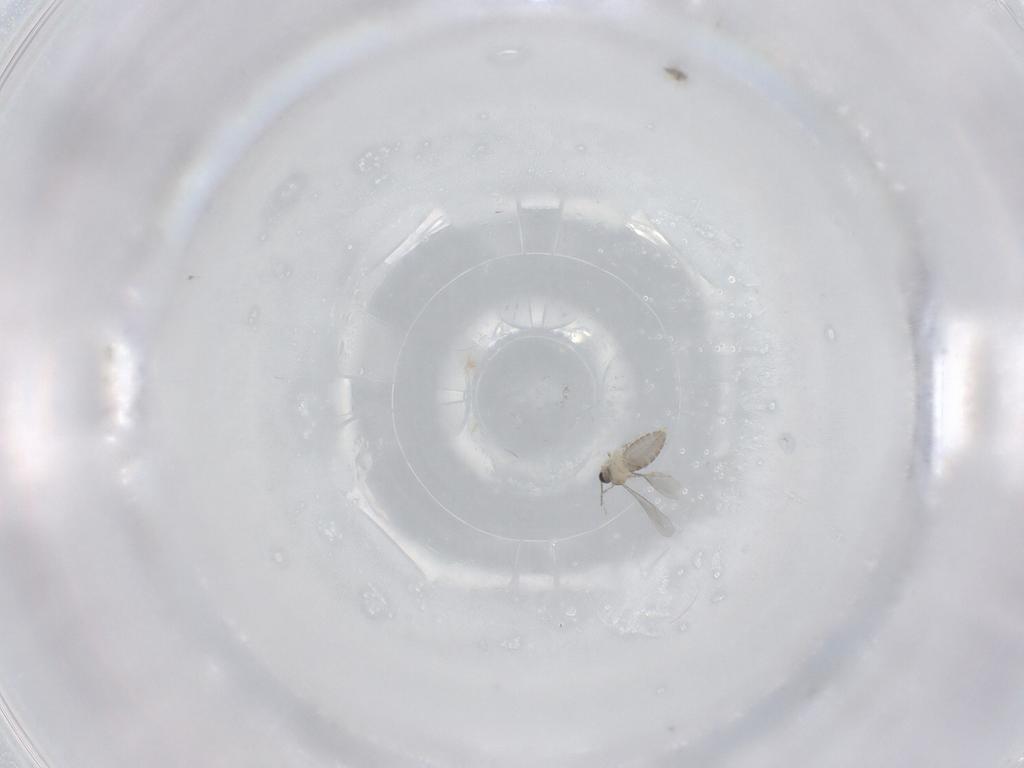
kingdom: Animalia
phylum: Arthropoda
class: Insecta
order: Diptera
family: Cecidomyiidae
